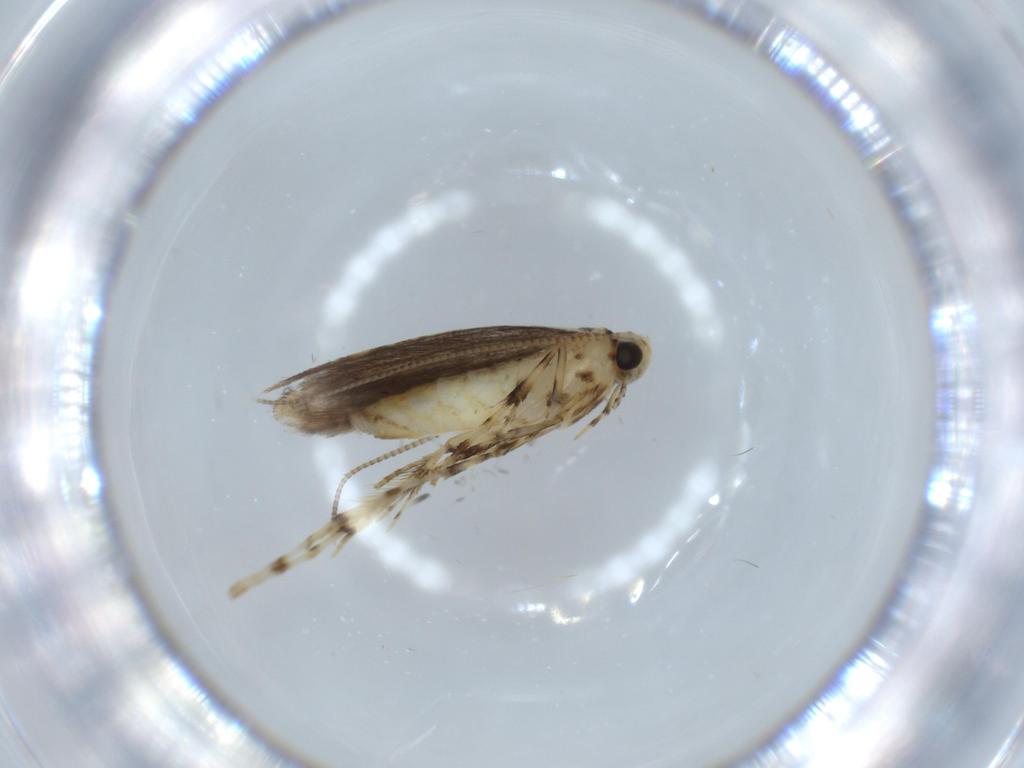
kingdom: Animalia
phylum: Arthropoda
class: Insecta
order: Lepidoptera
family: Gracillariidae
